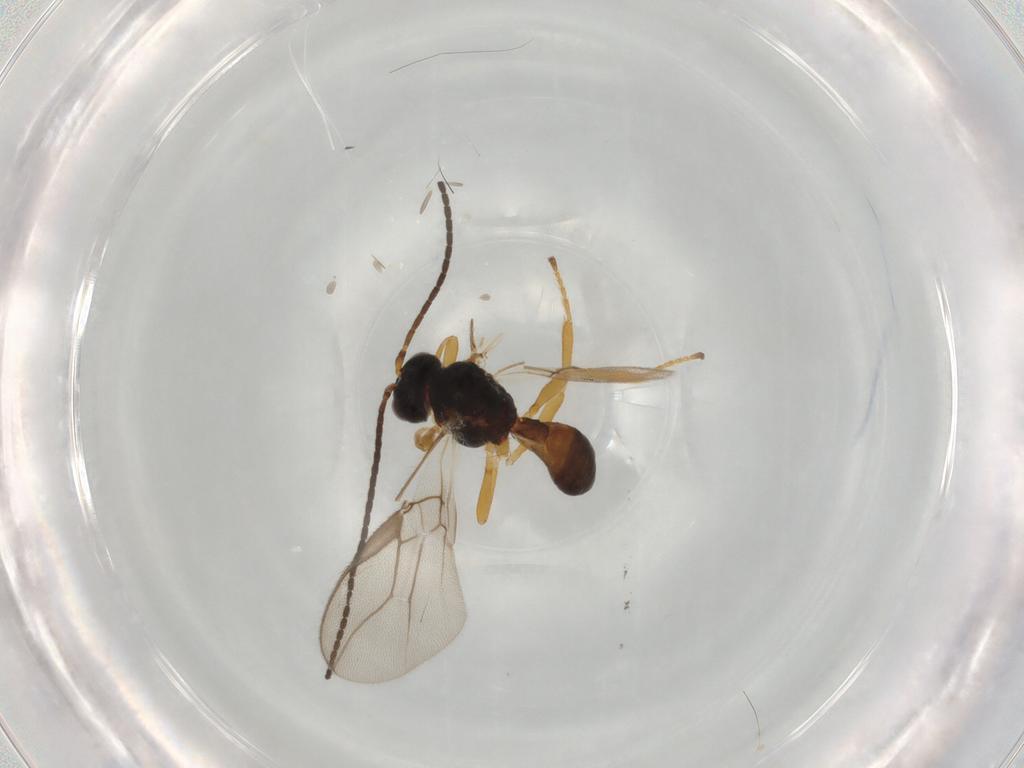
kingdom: Animalia
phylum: Arthropoda
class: Insecta
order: Hymenoptera
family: Braconidae
